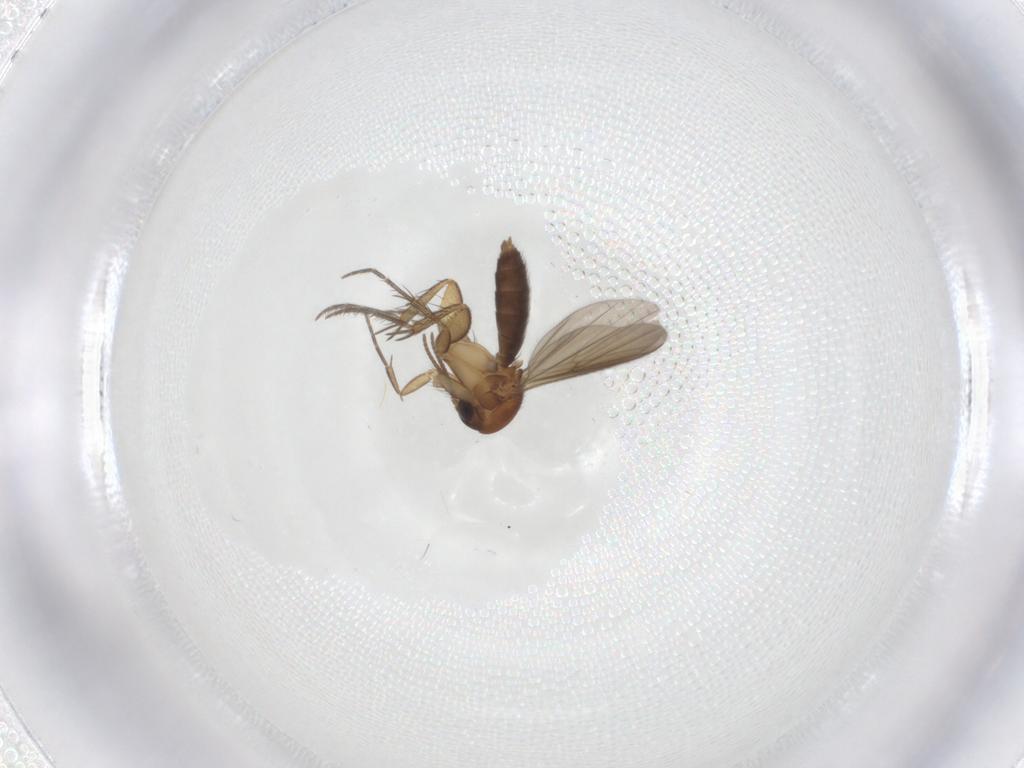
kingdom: Animalia
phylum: Arthropoda
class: Insecta
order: Diptera
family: Mycetophilidae
